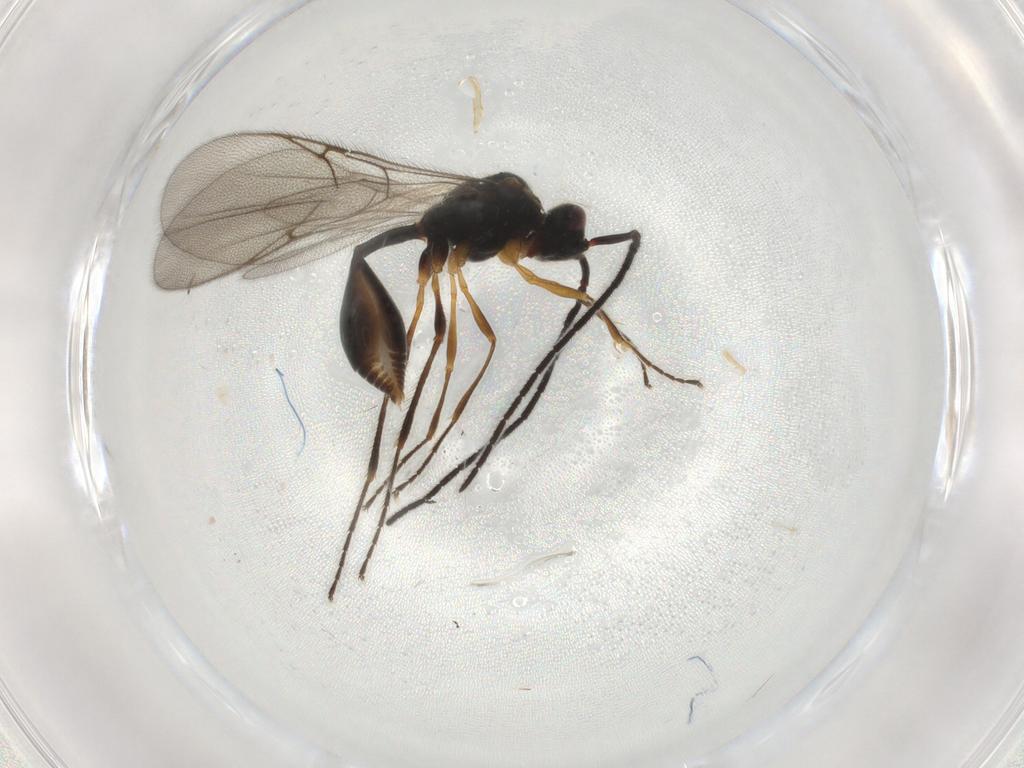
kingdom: Animalia
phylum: Arthropoda
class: Insecta
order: Hymenoptera
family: Diapriidae
